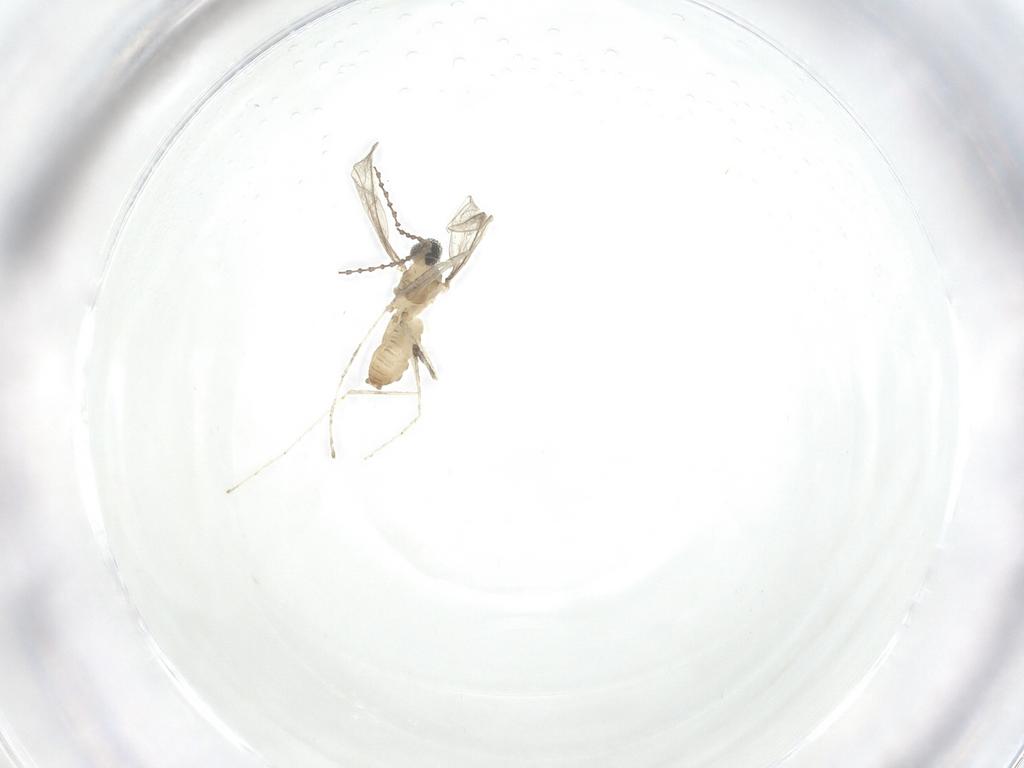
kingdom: Animalia
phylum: Arthropoda
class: Insecta
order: Diptera
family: Cecidomyiidae
